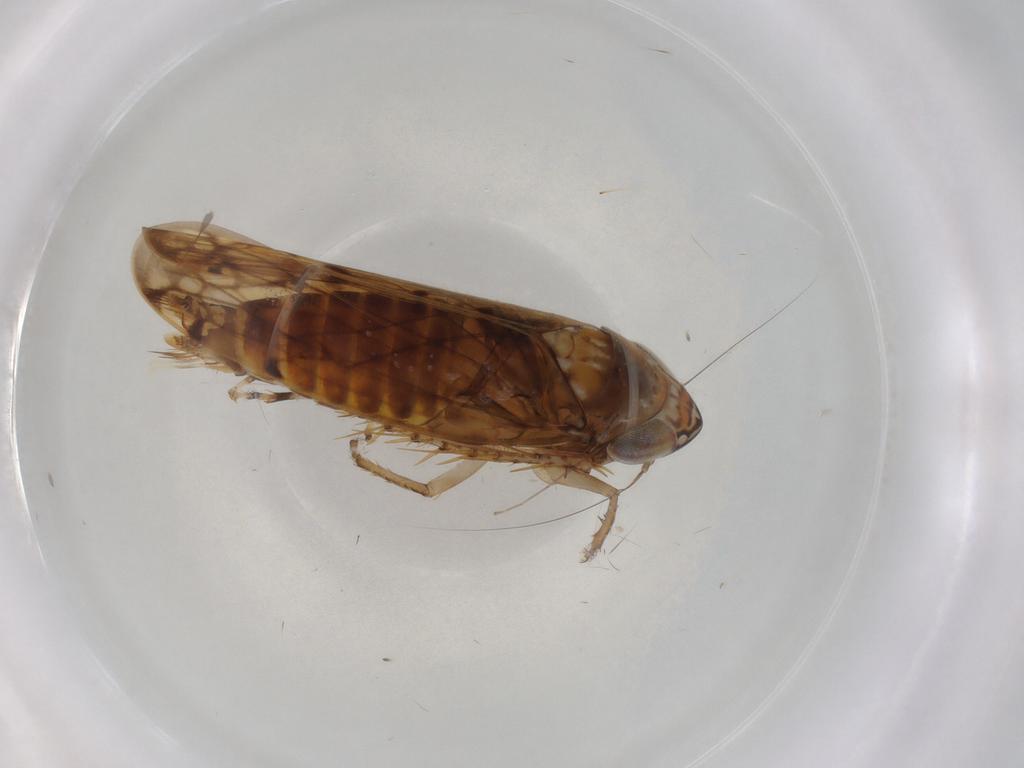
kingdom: Animalia
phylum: Arthropoda
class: Insecta
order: Hemiptera
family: Cicadellidae
